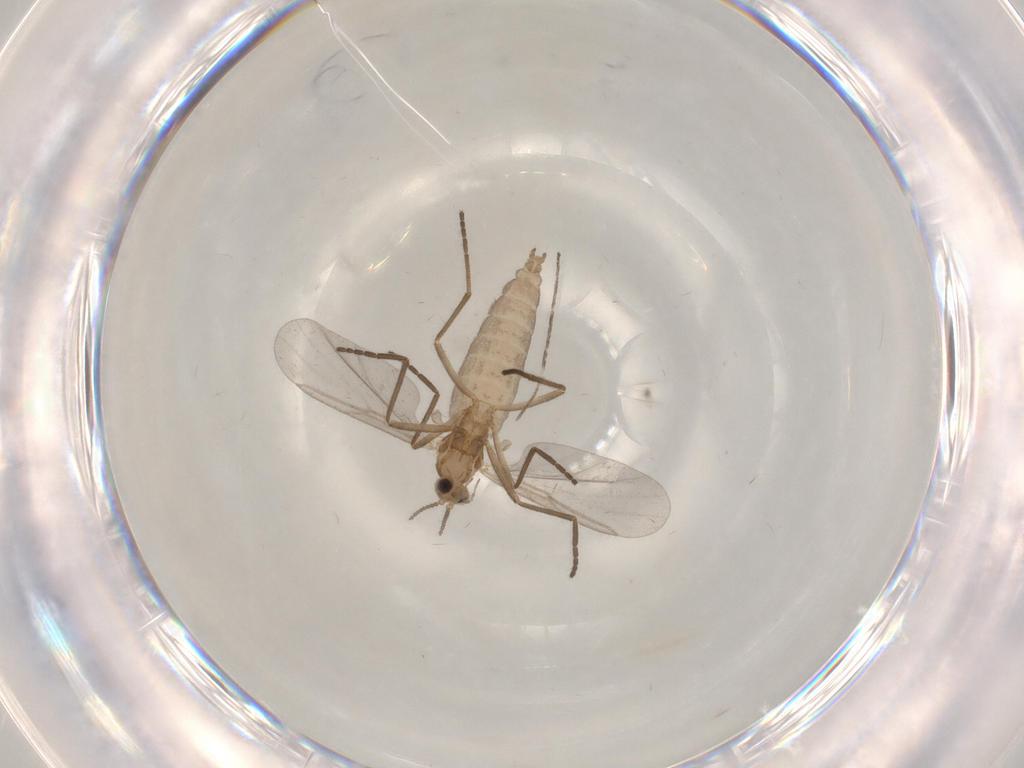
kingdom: Animalia
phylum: Arthropoda
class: Insecta
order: Diptera
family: Cecidomyiidae
